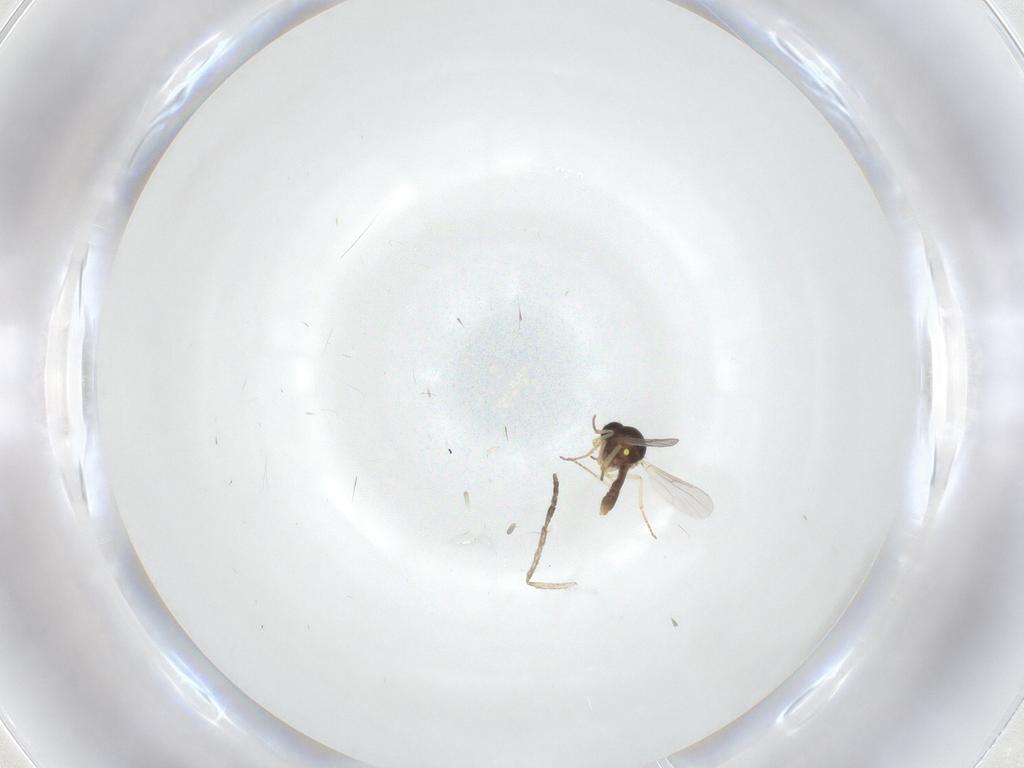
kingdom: Animalia
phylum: Arthropoda
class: Insecta
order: Diptera
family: Ceratopogonidae
